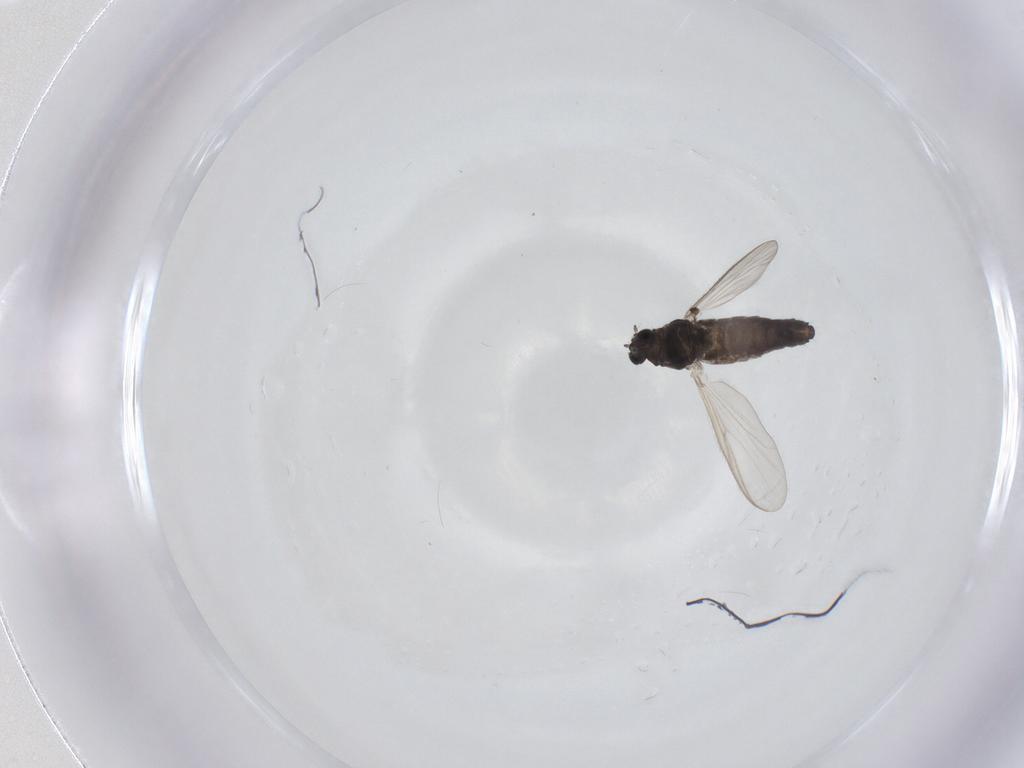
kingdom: Animalia
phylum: Arthropoda
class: Insecta
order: Diptera
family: Chironomidae
